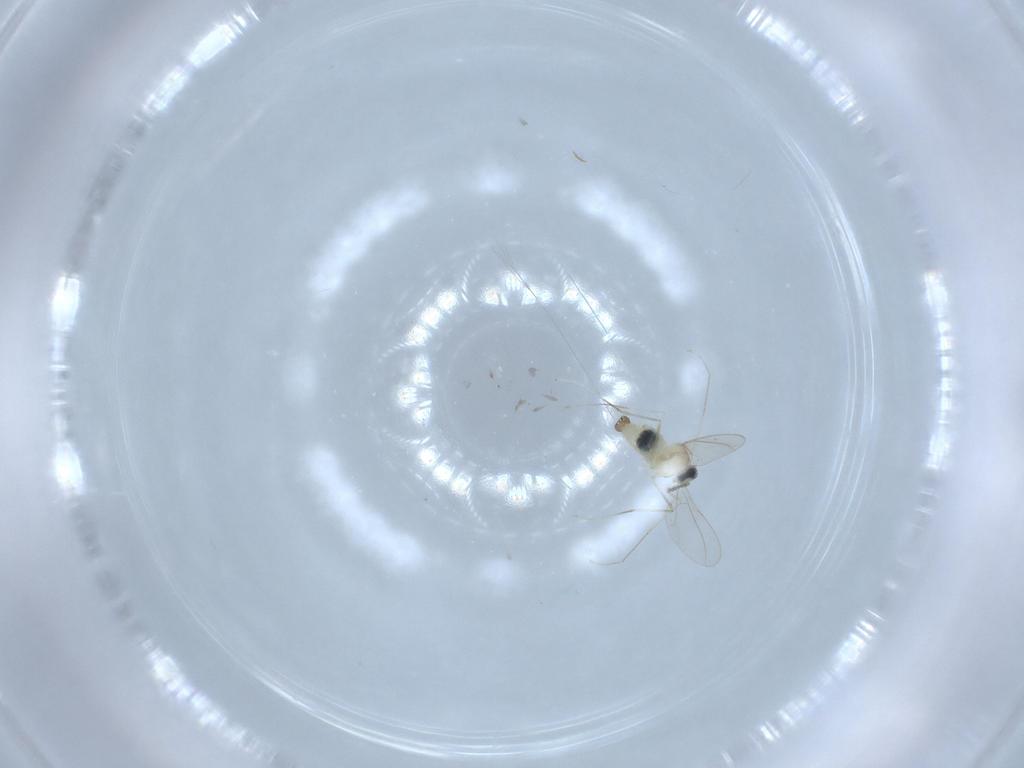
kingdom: Animalia
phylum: Arthropoda
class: Insecta
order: Diptera
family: Cecidomyiidae
